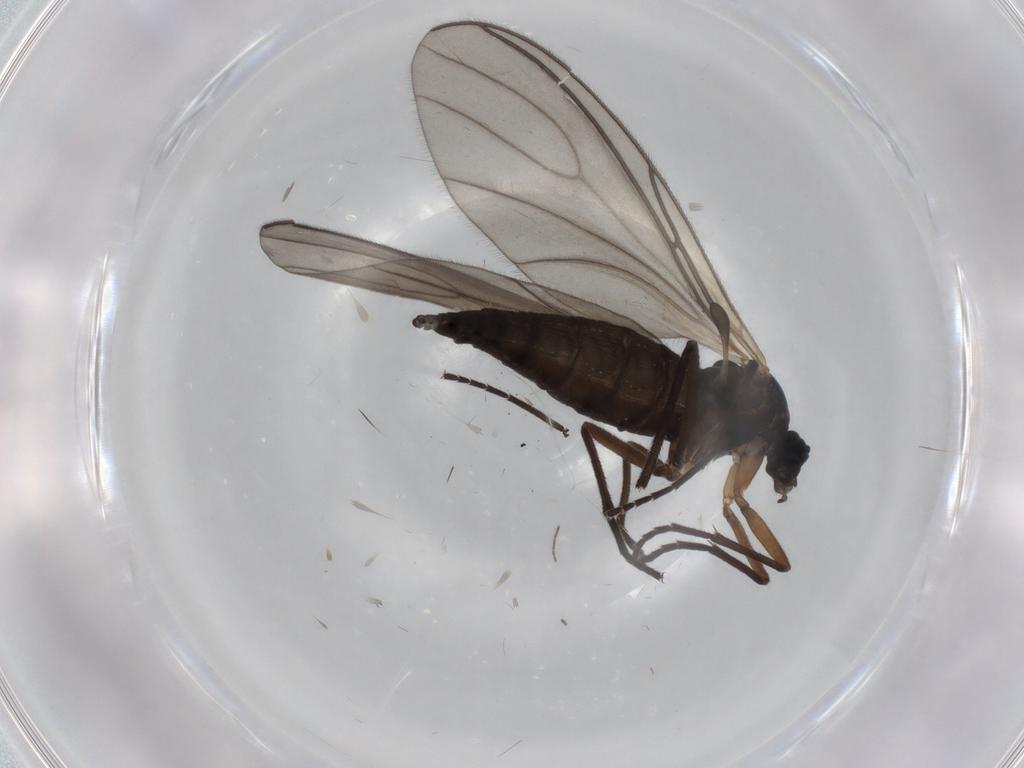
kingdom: Animalia
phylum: Arthropoda
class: Insecta
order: Diptera
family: Sciaridae
